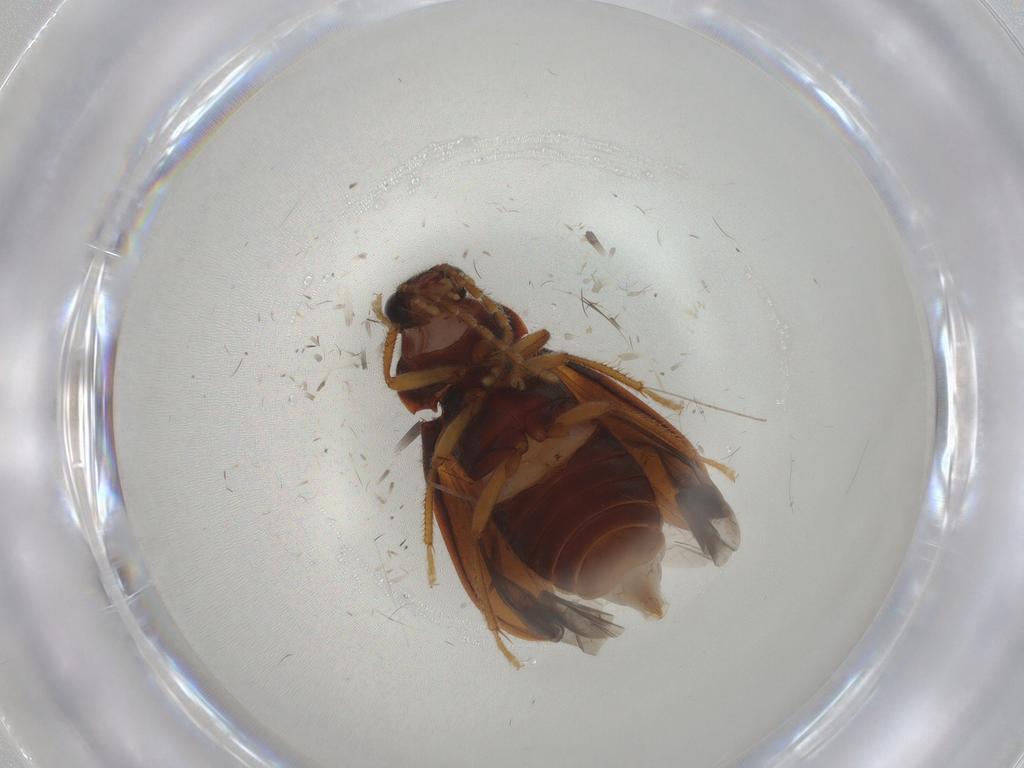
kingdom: Animalia
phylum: Arthropoda
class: Insecta
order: Coleoptera
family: Ptilodactylidae
